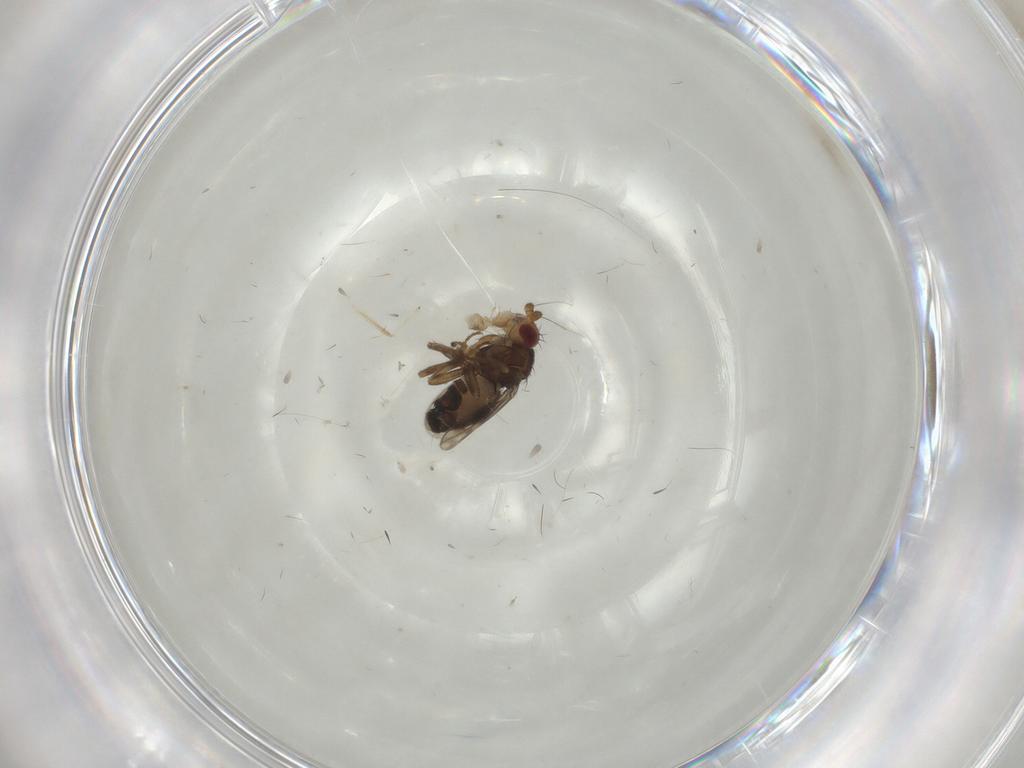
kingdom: Animalia
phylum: Arthropoda
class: Insecta
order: Diptera
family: Sphaeroceridae
